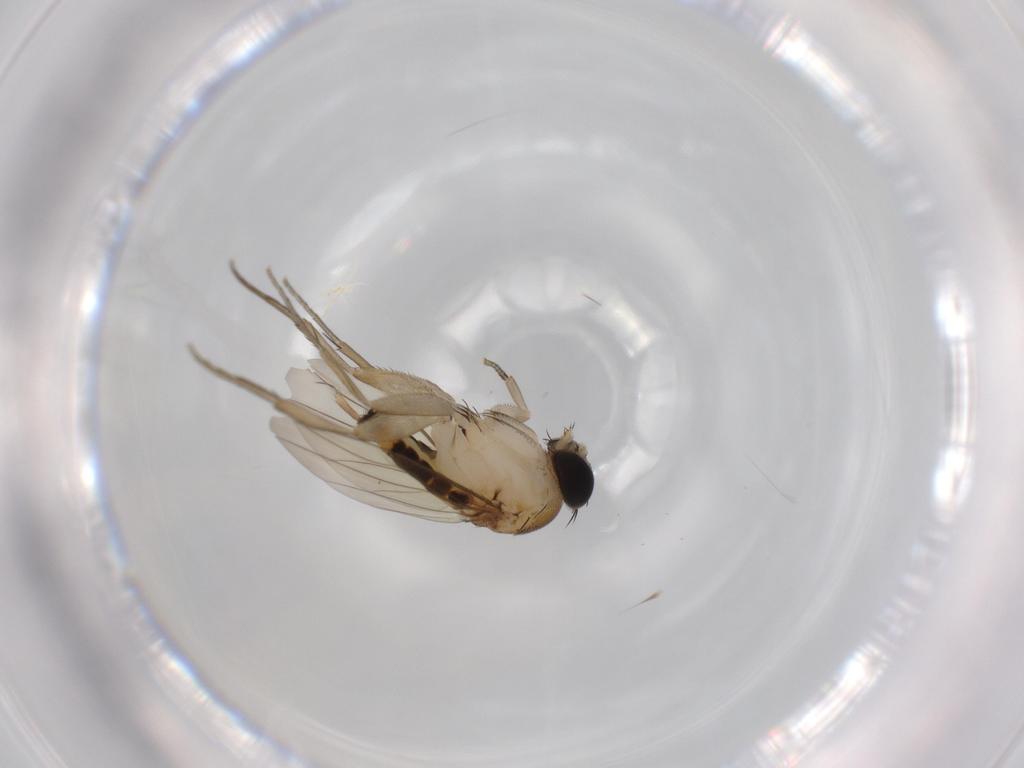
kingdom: Animalia
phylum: Arthropoda
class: Insecta
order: Diptera
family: Phoridae
